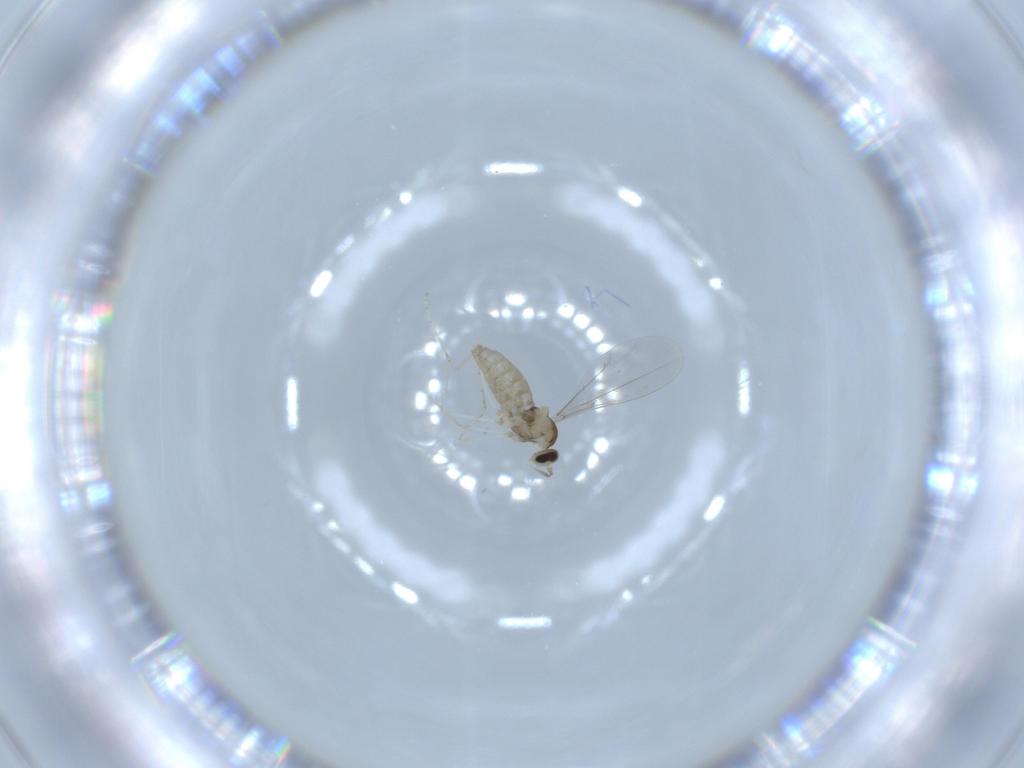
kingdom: Animalia
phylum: Arthropoda
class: Insecta
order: Diptera
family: Cecidomyiidae
